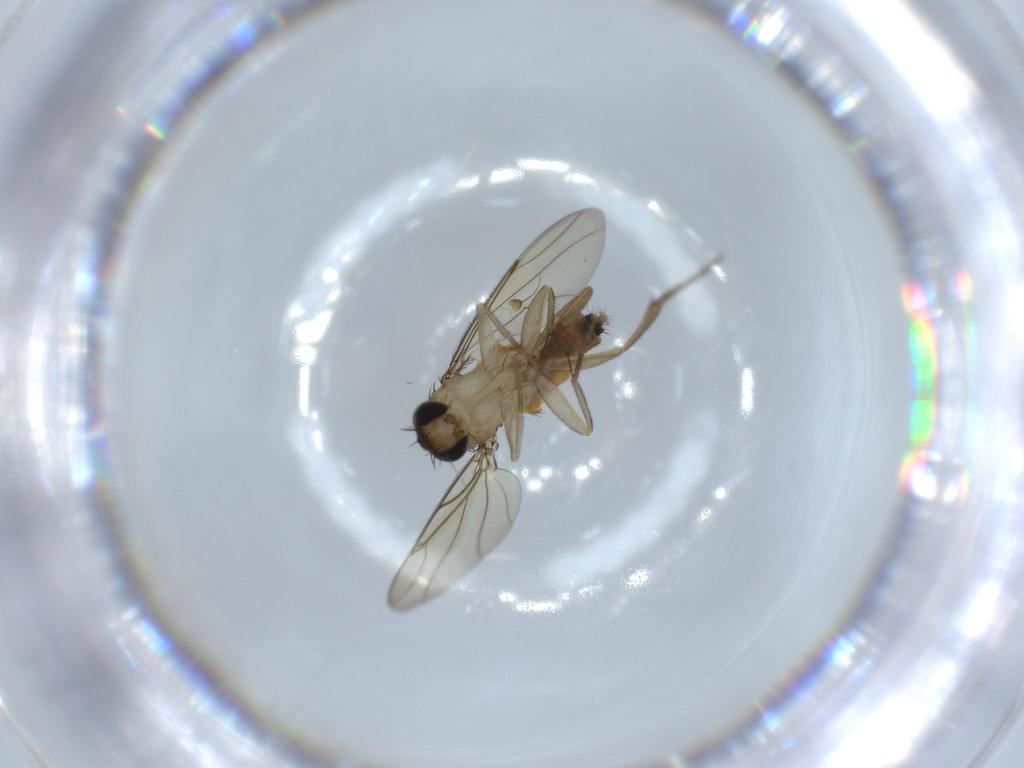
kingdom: Animalia
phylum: Arthropoda
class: Insecta
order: Diptera
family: Phoridae
